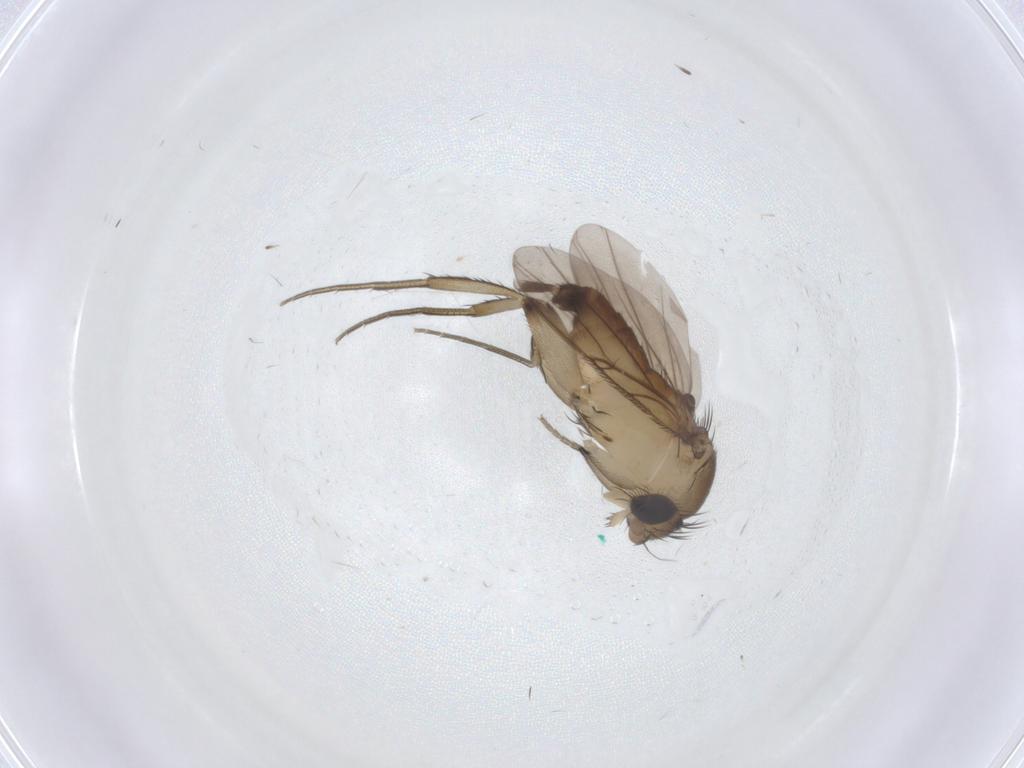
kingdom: Animalia
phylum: Arthropoda
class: Insecta
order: Diptera
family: Phoridae
